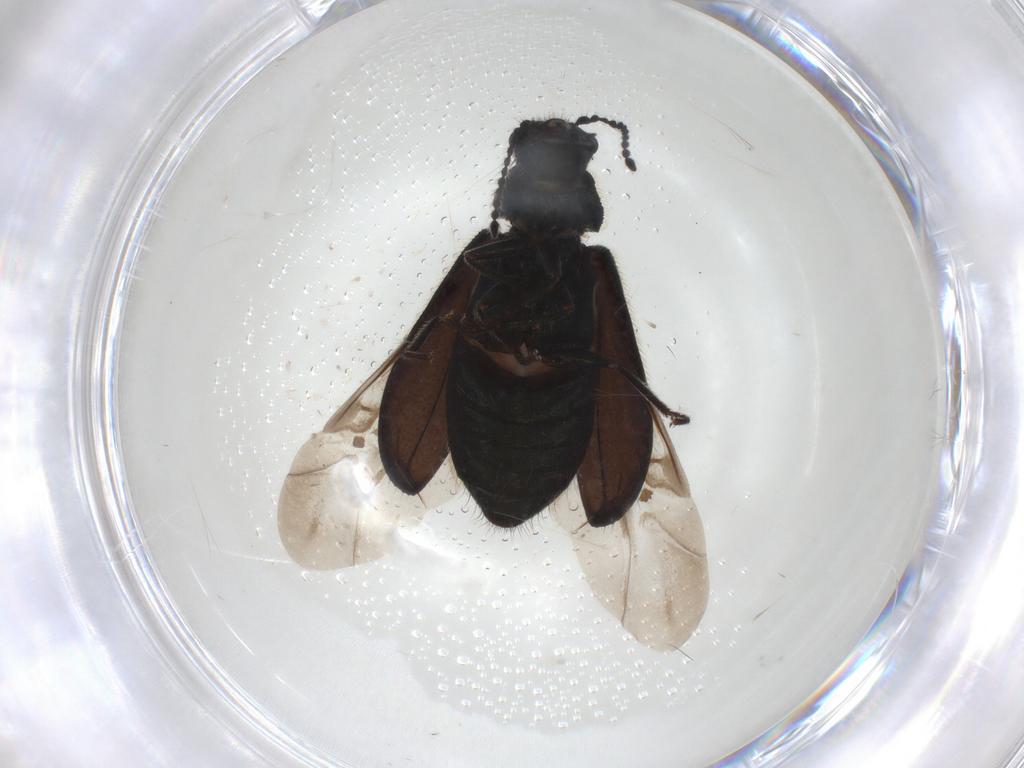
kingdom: Animalia
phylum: Arthropoda
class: Insecta
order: Coleoptera
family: Melyridae
